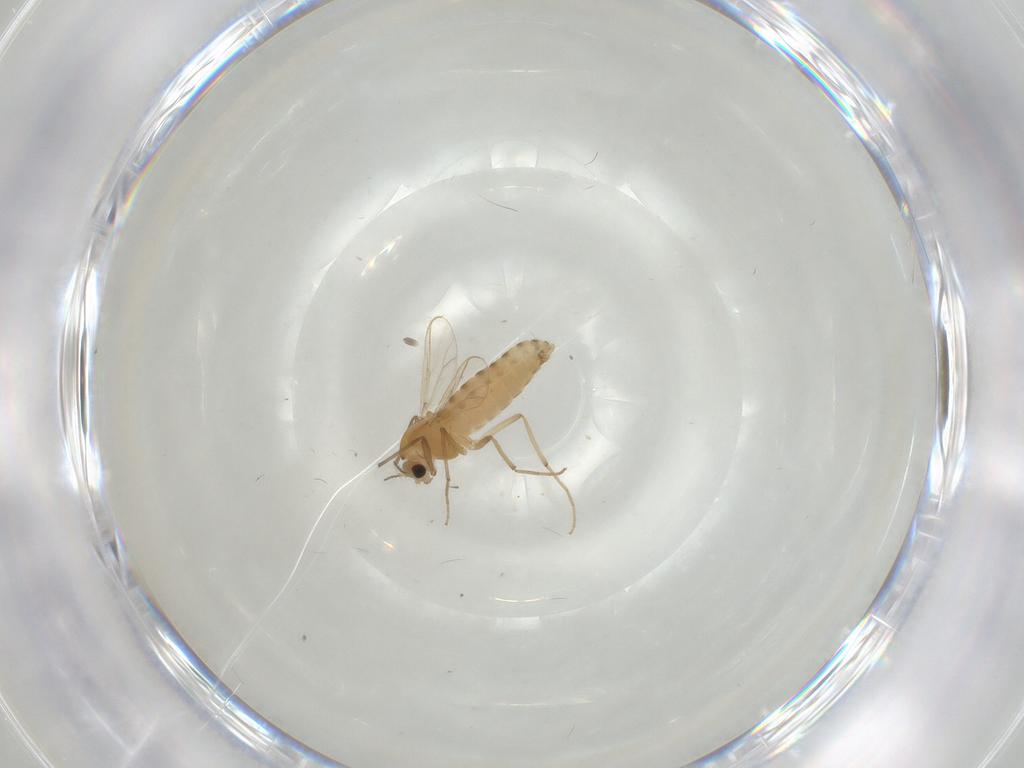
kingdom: Animalia
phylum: Arthropoda
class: Insecta
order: Diptera
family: Chironomidae
